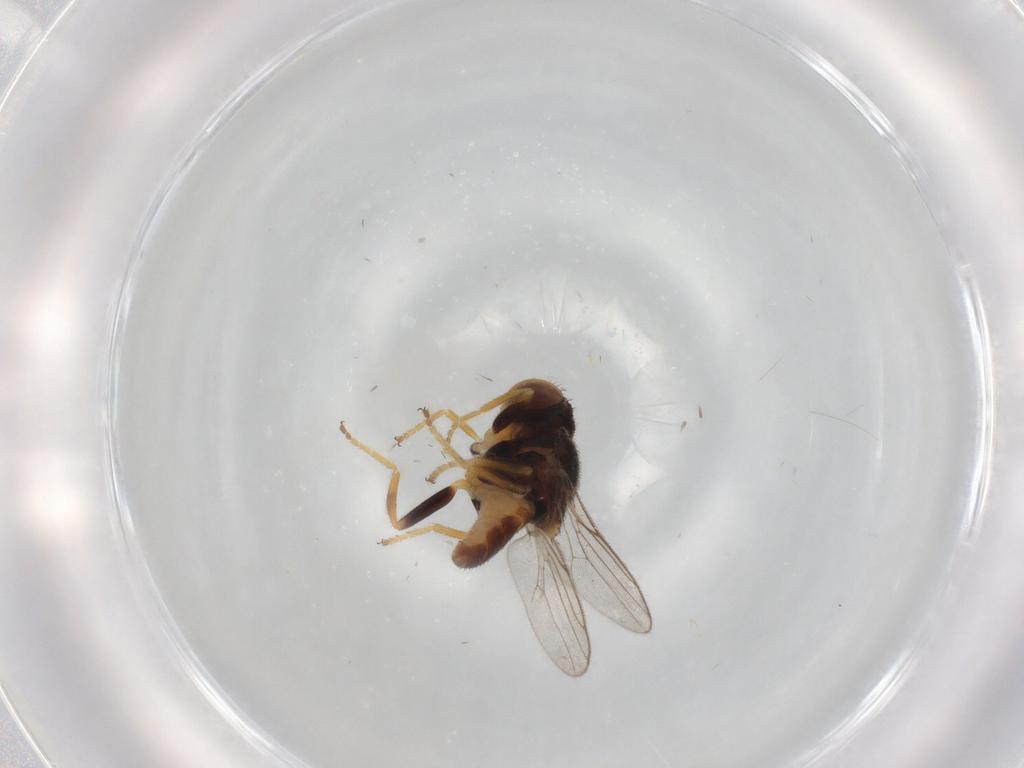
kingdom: Animalia
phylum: Arthropoda
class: Insecta
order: Diptera
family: Chloropidae
